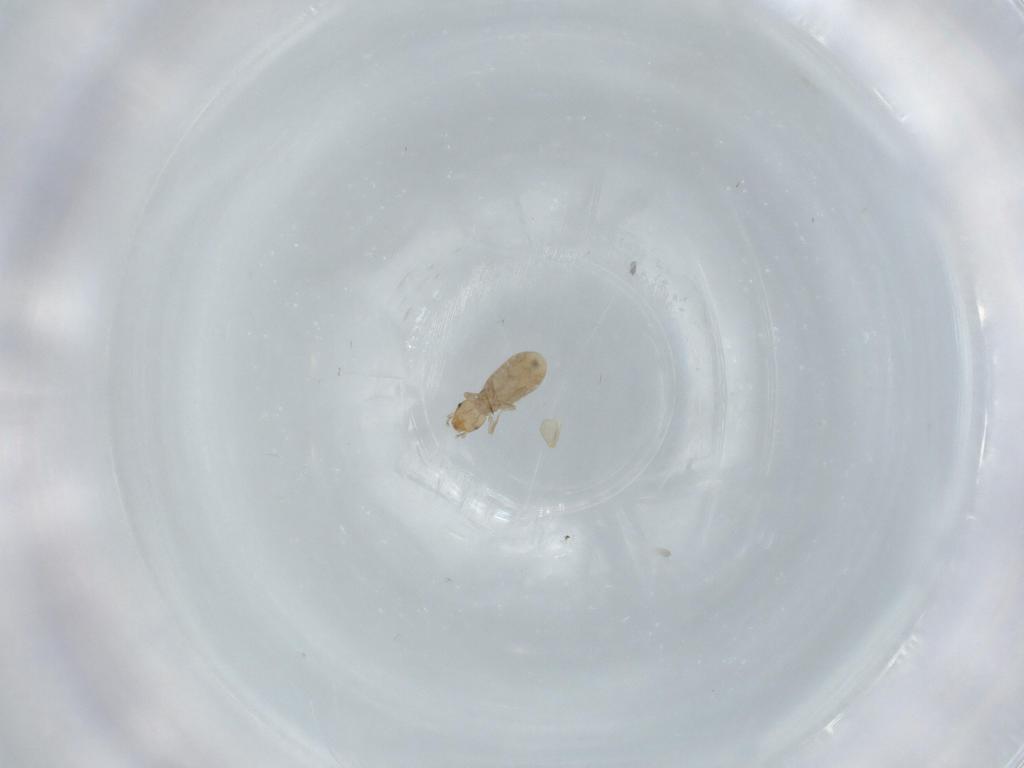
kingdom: Animalia
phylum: Arthropoda
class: Insecta
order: Psocodea
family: Liposcelididae
